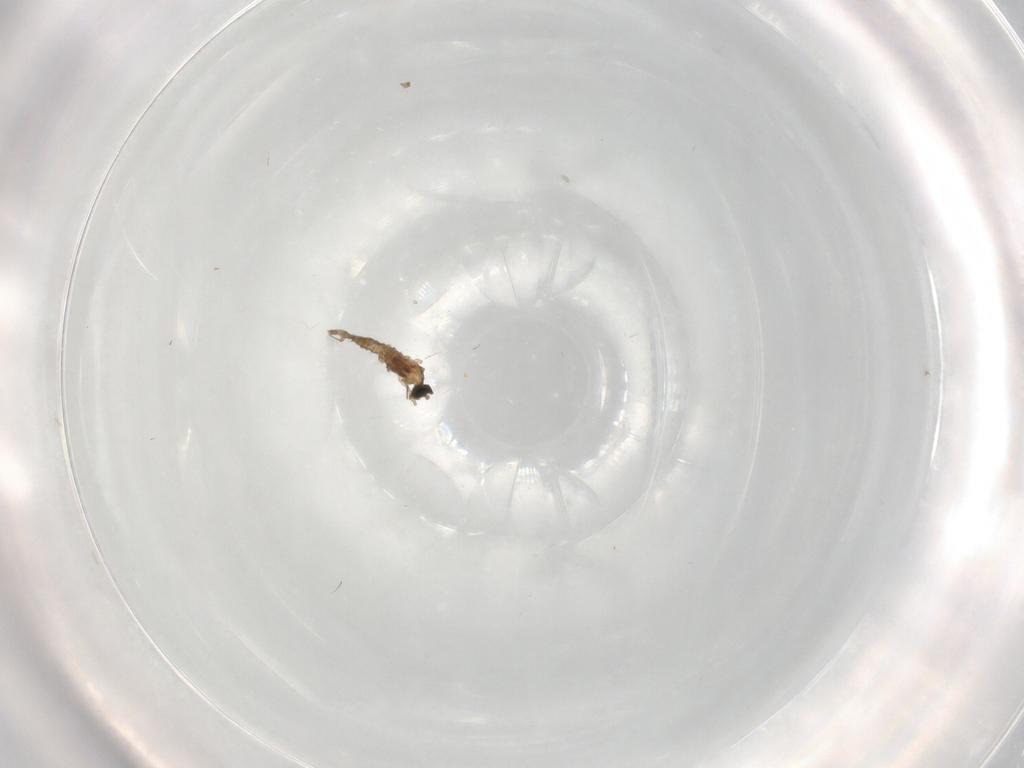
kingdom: Animalia
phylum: Arthropoda
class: Insecta
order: Diptera
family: Cecidomyiidae
